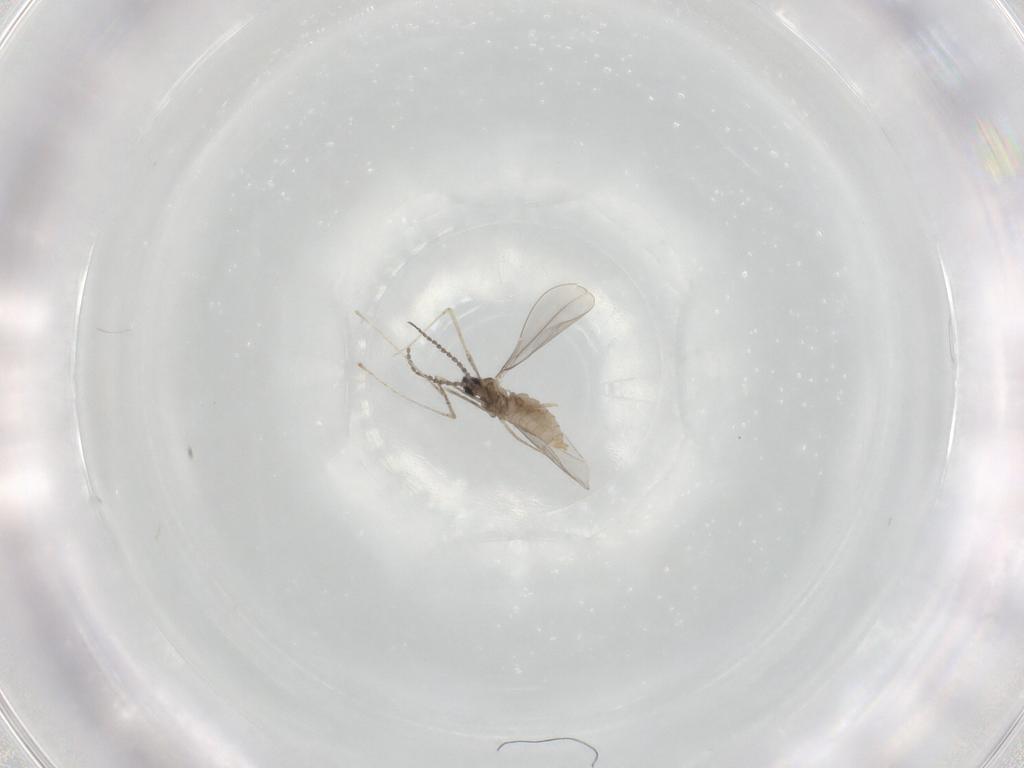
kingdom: Animalia
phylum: Arthropoda
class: Insecta
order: Diptera
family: Cecidomyiidae
